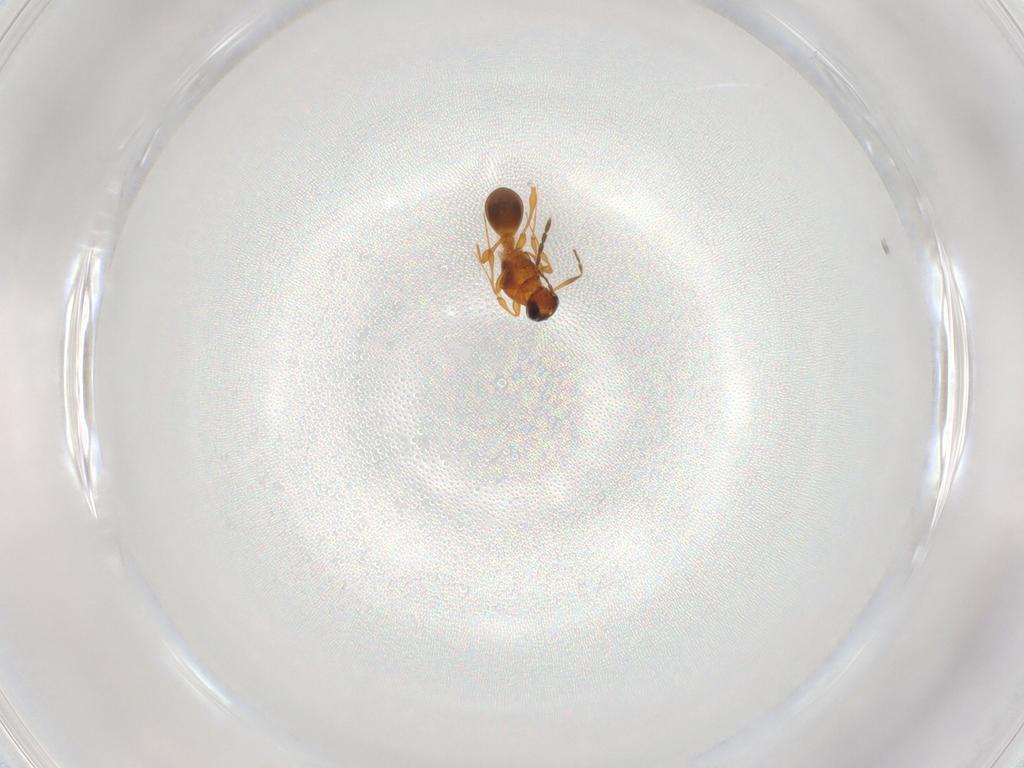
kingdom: Animalia
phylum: Arthropoda
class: Insecta
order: Hymenoptera
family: Platygastridae
